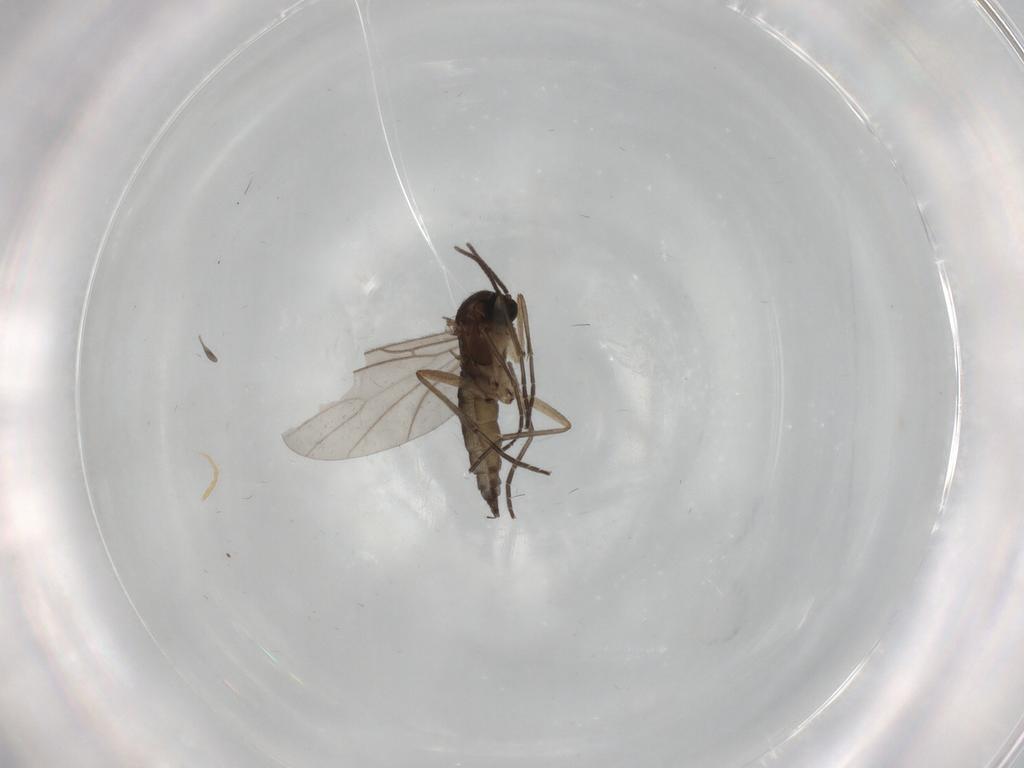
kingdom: Animalia
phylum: Arthropoda
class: Insecta
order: Diptera
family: Sciaridae
